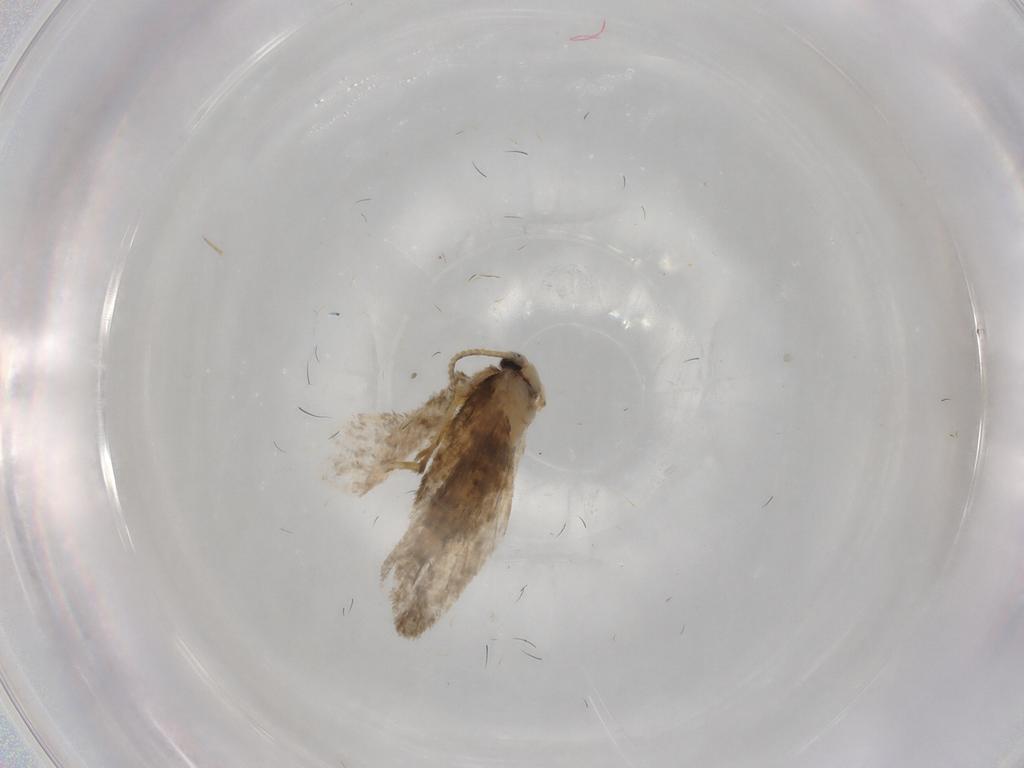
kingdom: Animalia
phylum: Arthropoda
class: Insecta
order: Lepidoptera
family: Psychidae
